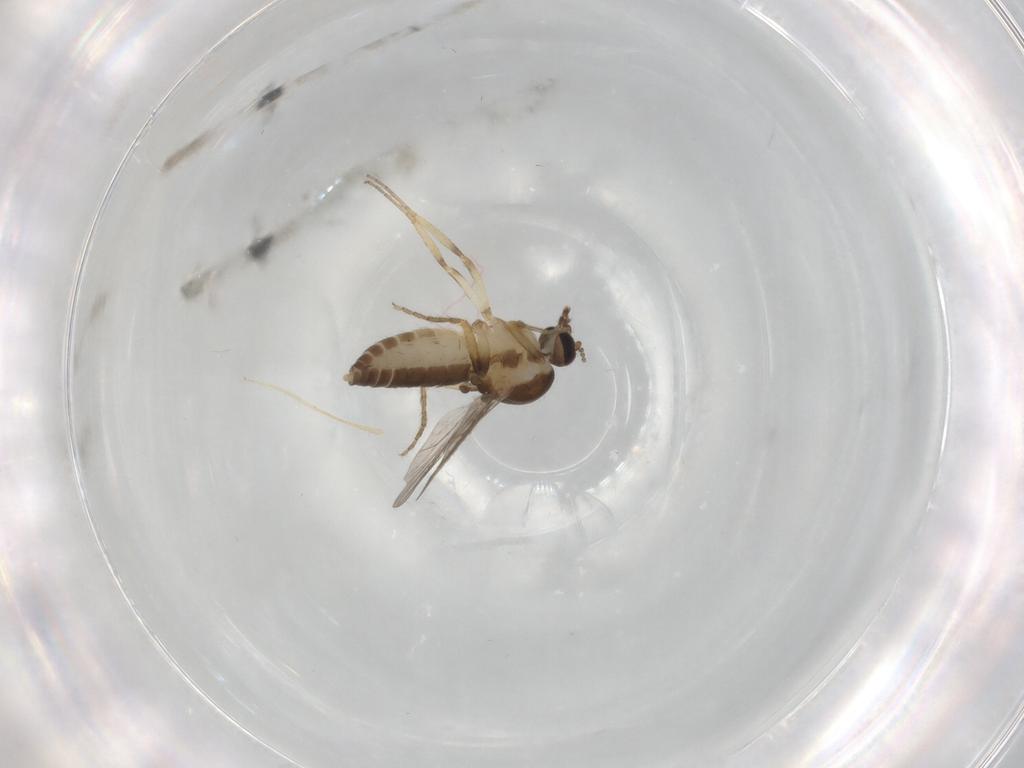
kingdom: Animalia
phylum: Arthropoda
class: Insecta
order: Diptera
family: Ceratopogonidae
